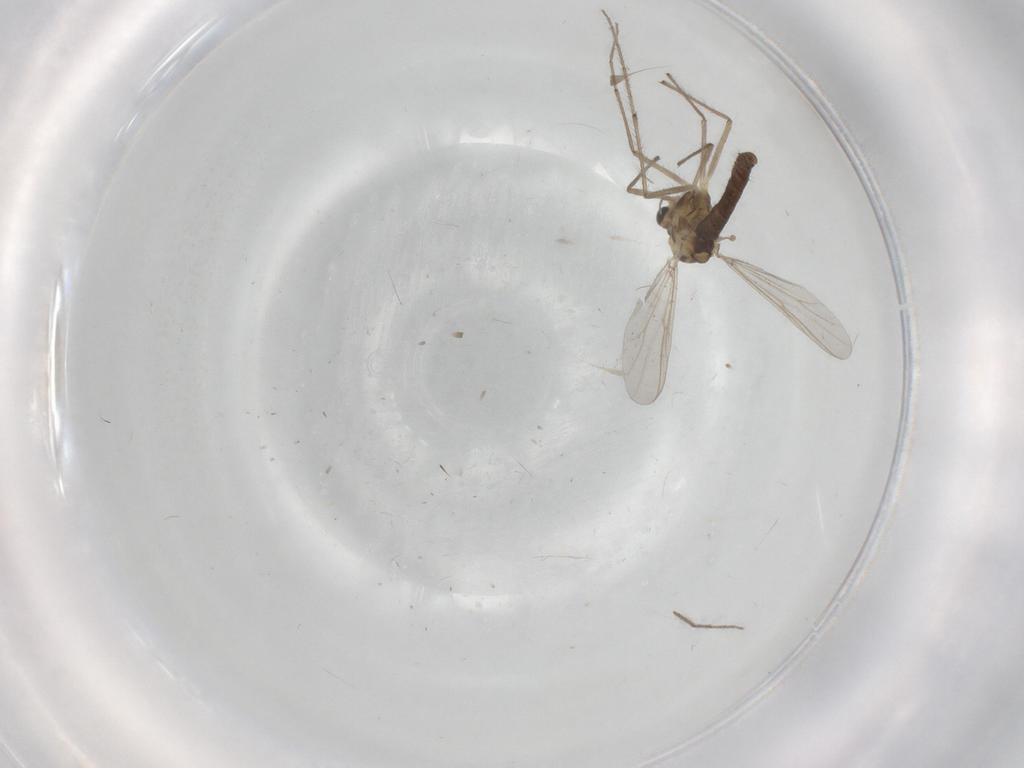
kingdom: Animalia
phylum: Arthropoda
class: Insecta
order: Diptera
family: Chironomidae
